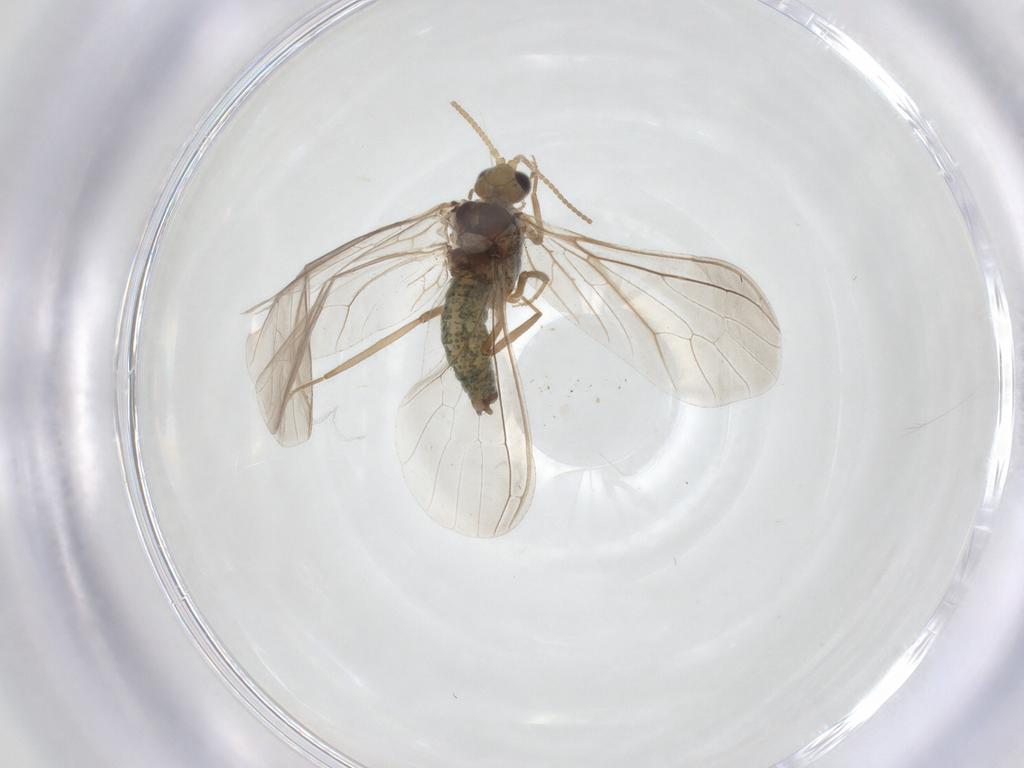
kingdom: Animalia
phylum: Arthropoda
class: Insecta
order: Neuroptera
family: Coniopterygidae
